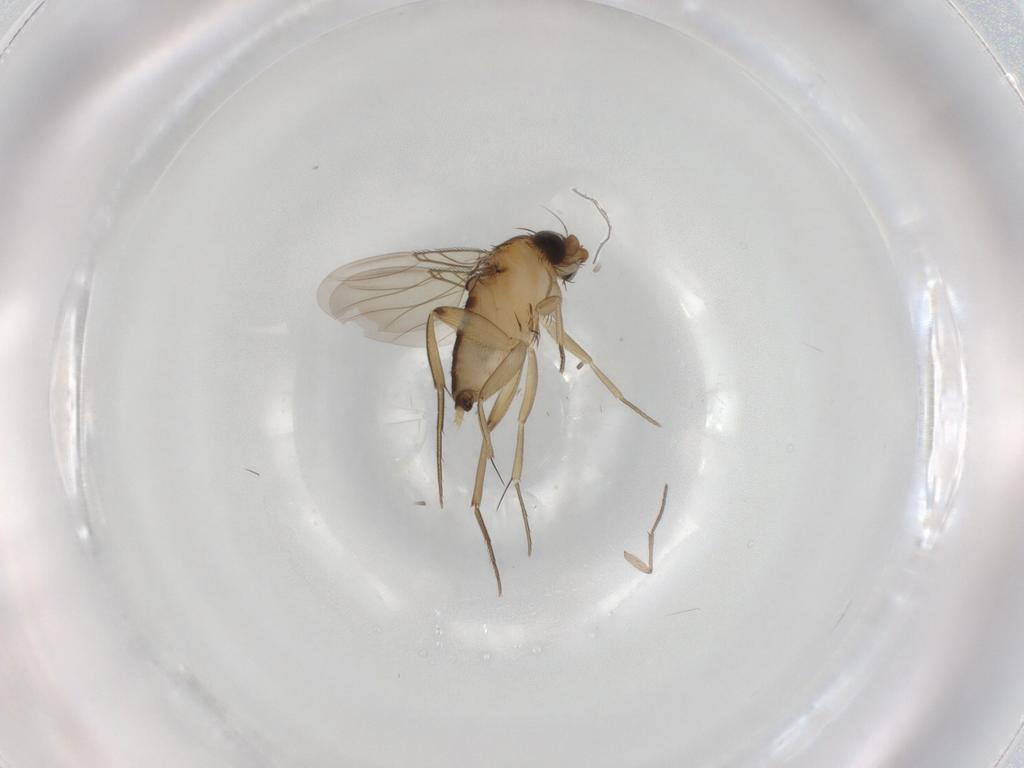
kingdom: Animalia
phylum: Arthropoda
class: Insecta
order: Diptera
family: Phoridae
